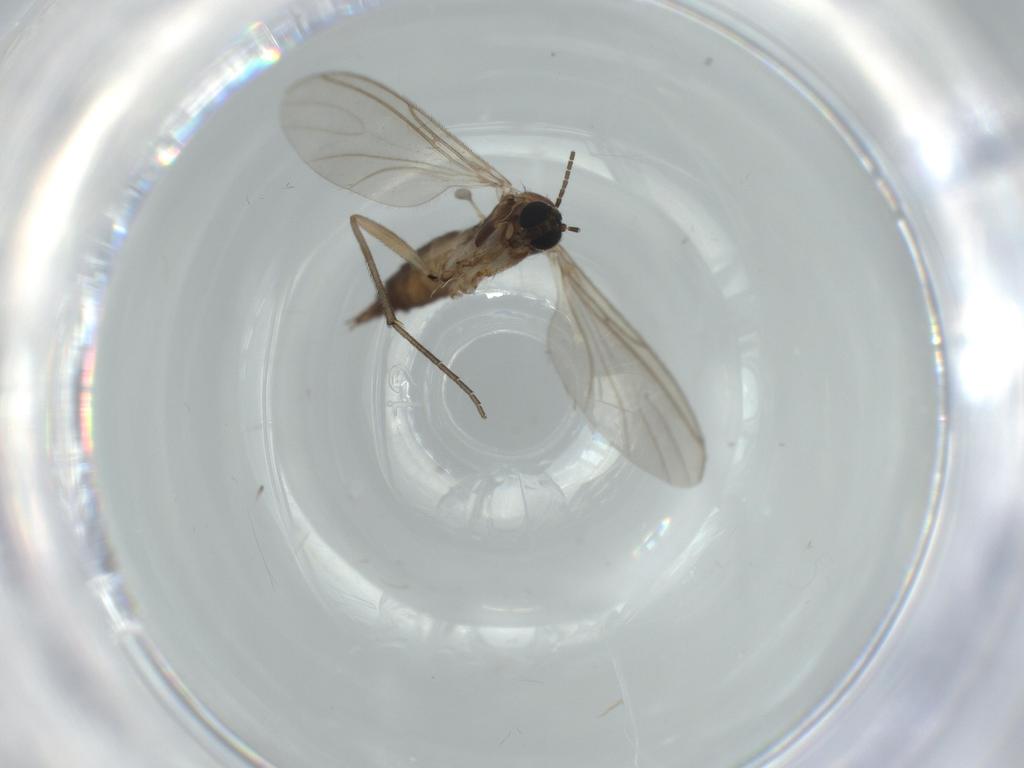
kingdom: Animalia
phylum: Arthropoda
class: Insecta
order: Diptera
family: Sciaridae
